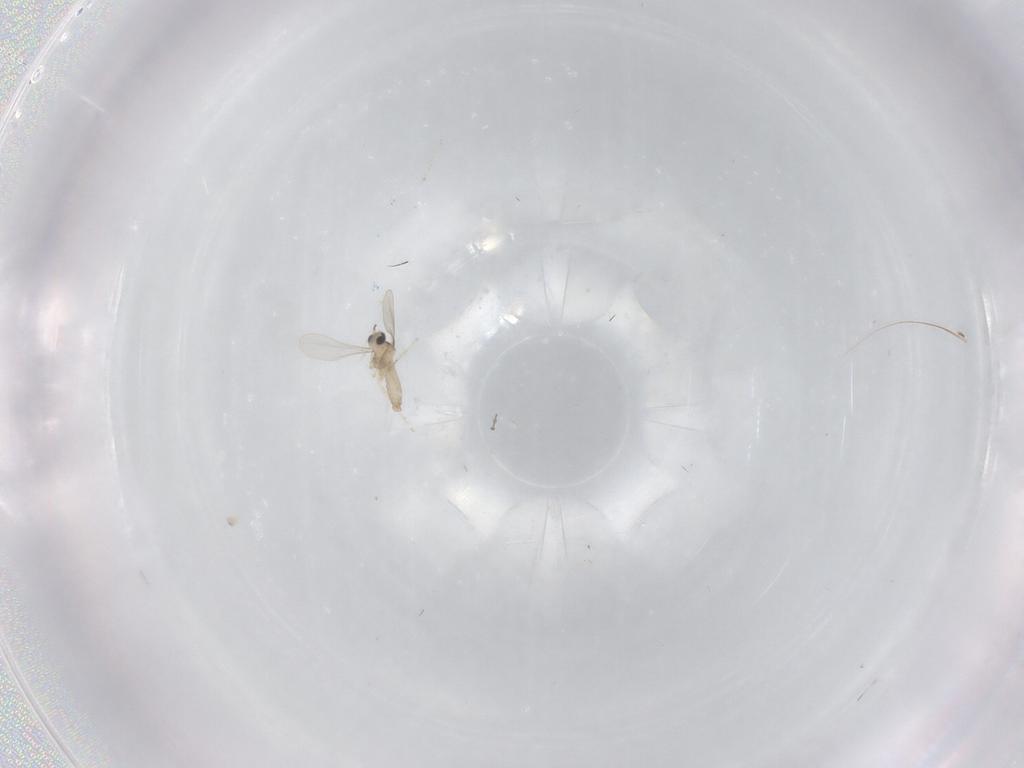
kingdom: Animalia
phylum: Arthropoda
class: Insecta
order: Diptera
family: Cecidomyiidae
